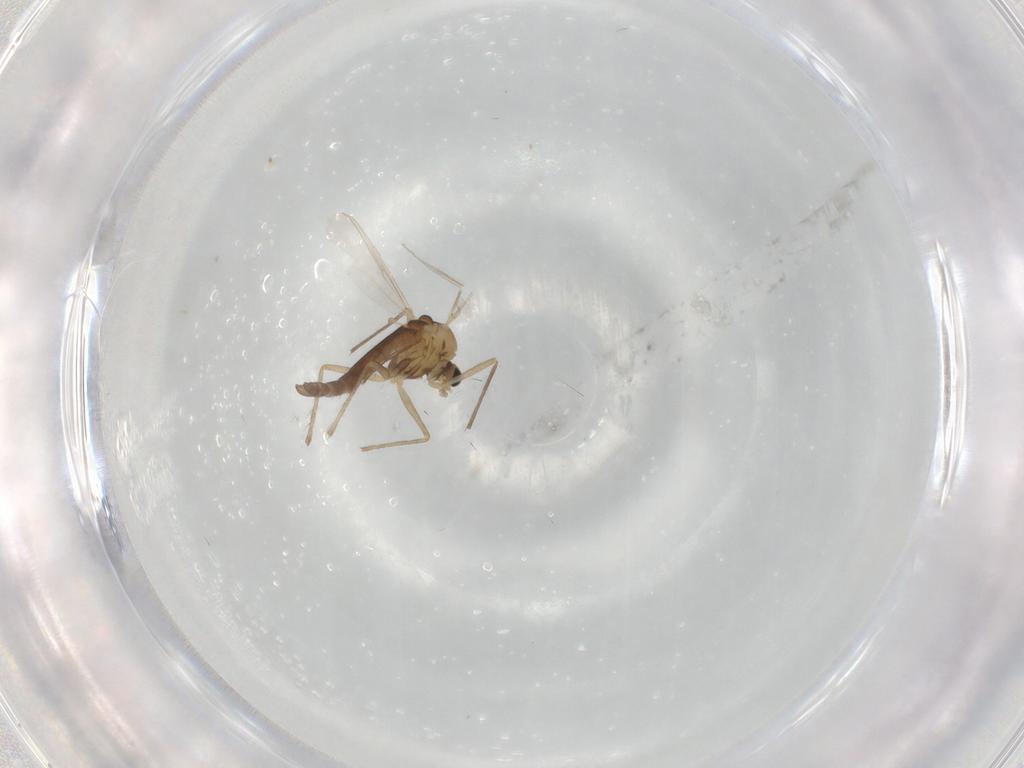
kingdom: Animalia
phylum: Arthropoda
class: Insecta
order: Diptera
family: Chironomidae
